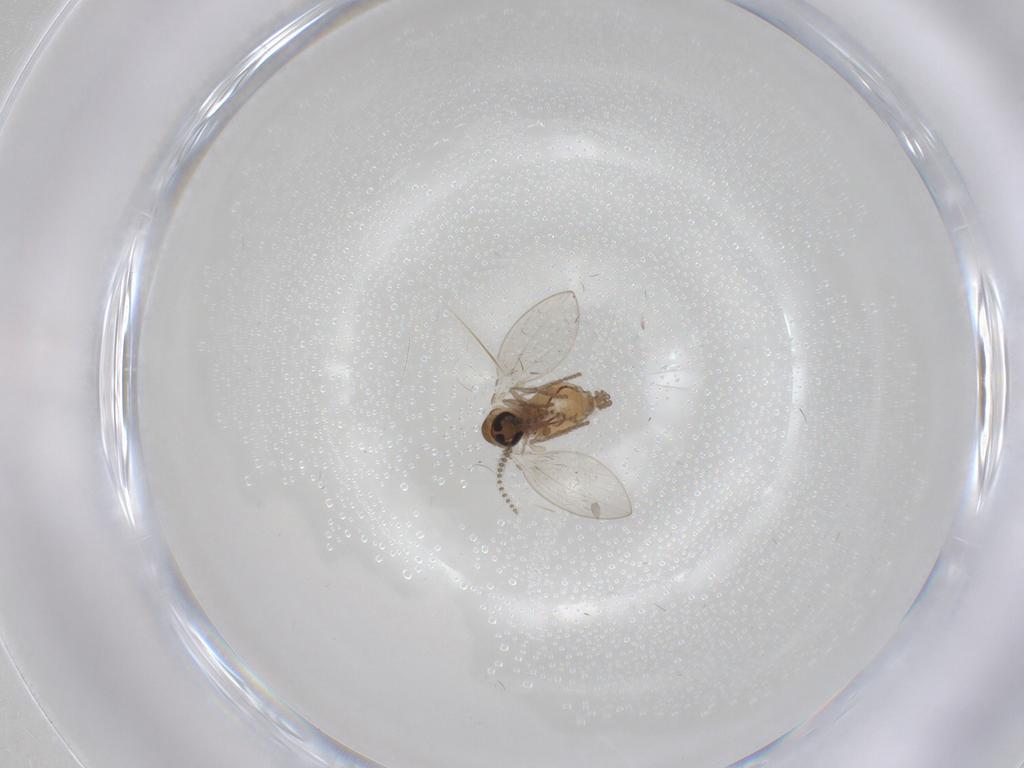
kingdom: Animalia
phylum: Arthropoda
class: Insecta
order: Diptera
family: Psychodidae
